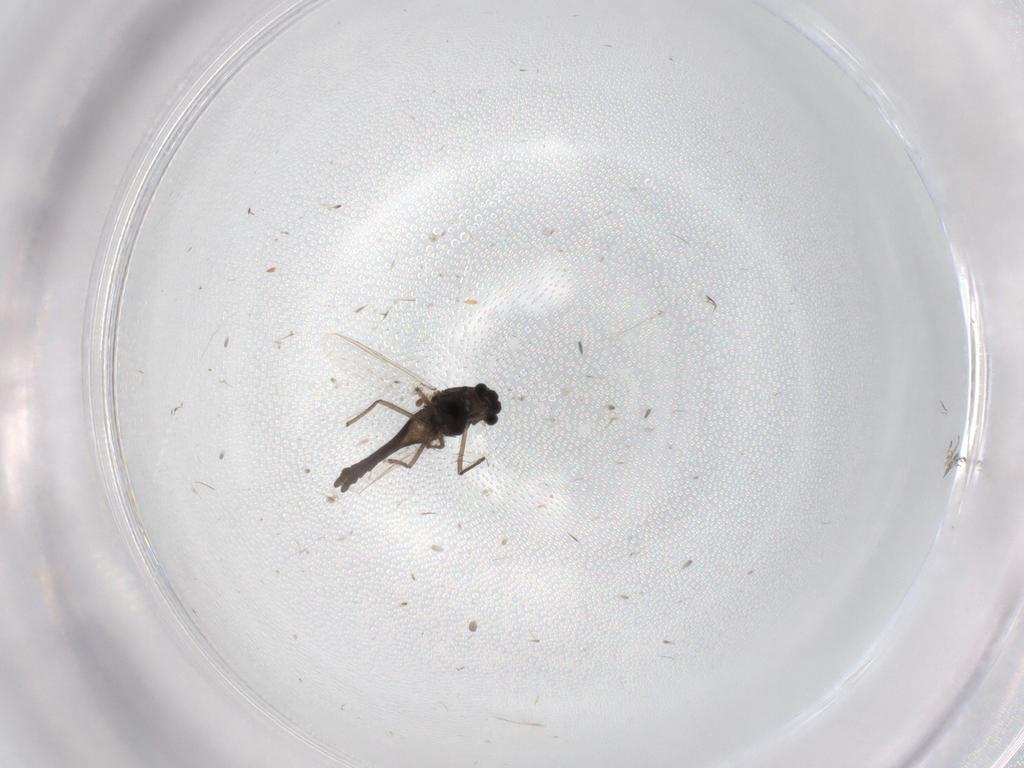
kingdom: Animalia
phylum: Arthropoda
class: Insecta
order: Diptera
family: Chironomidae
